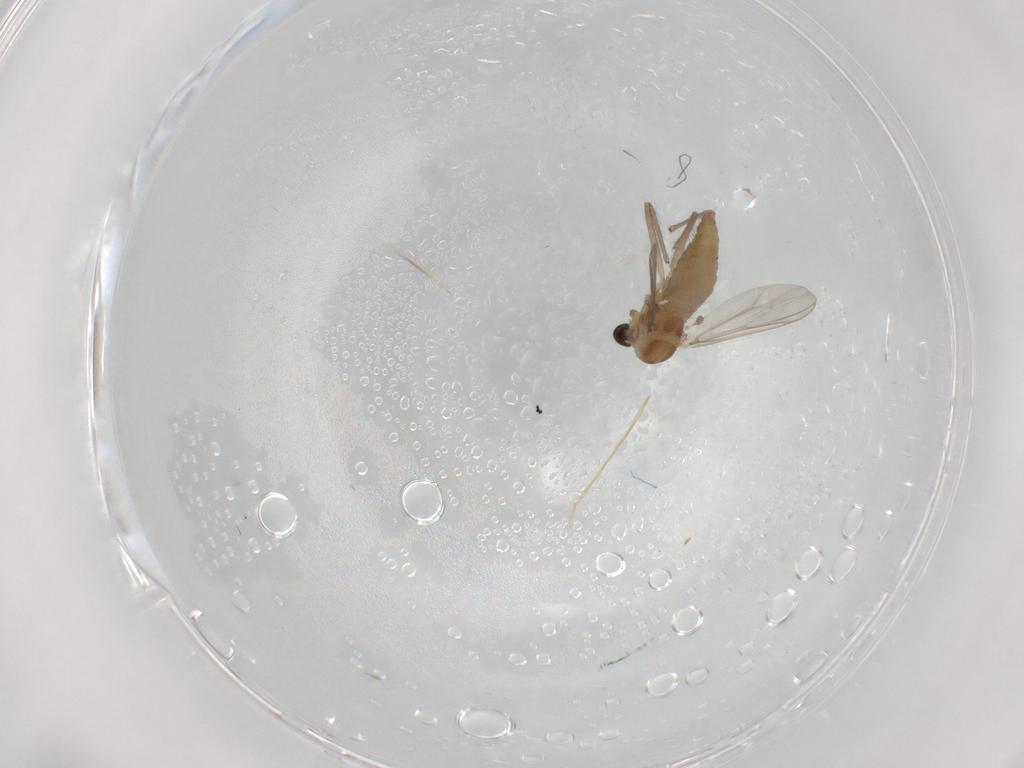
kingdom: Animalia
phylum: Arthropoda
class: Insecta
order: Diptera
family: Chironomidae
